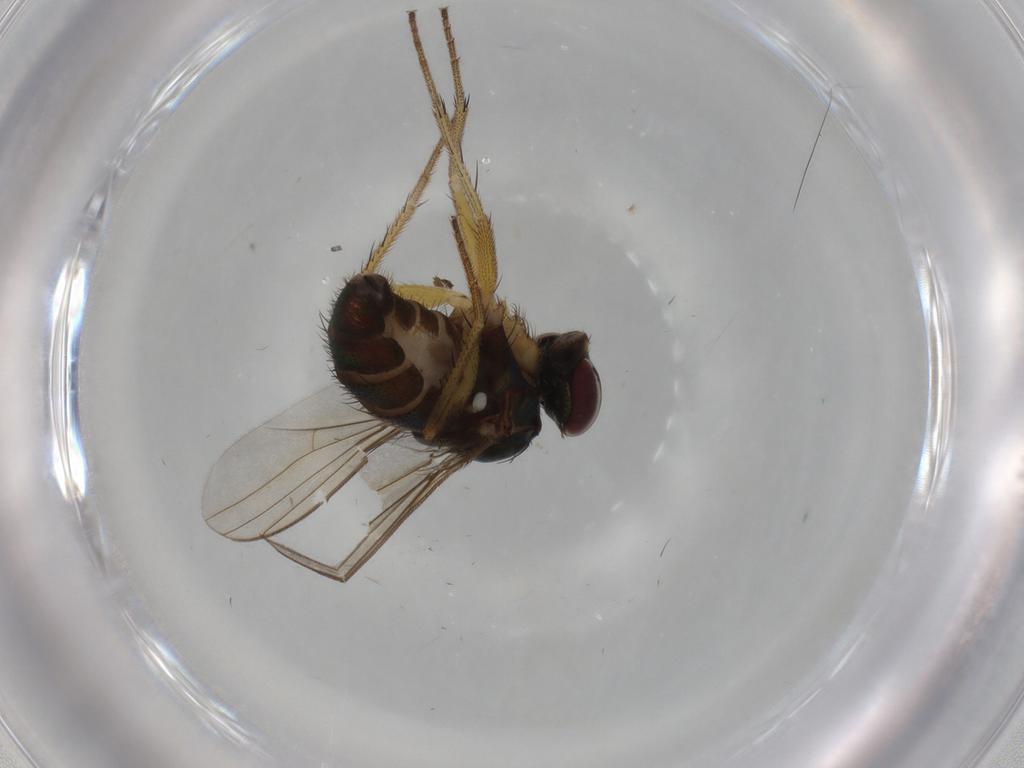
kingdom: Animalia
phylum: Arthropoda
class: Insecta
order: Diptera
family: Dolichopodidae
